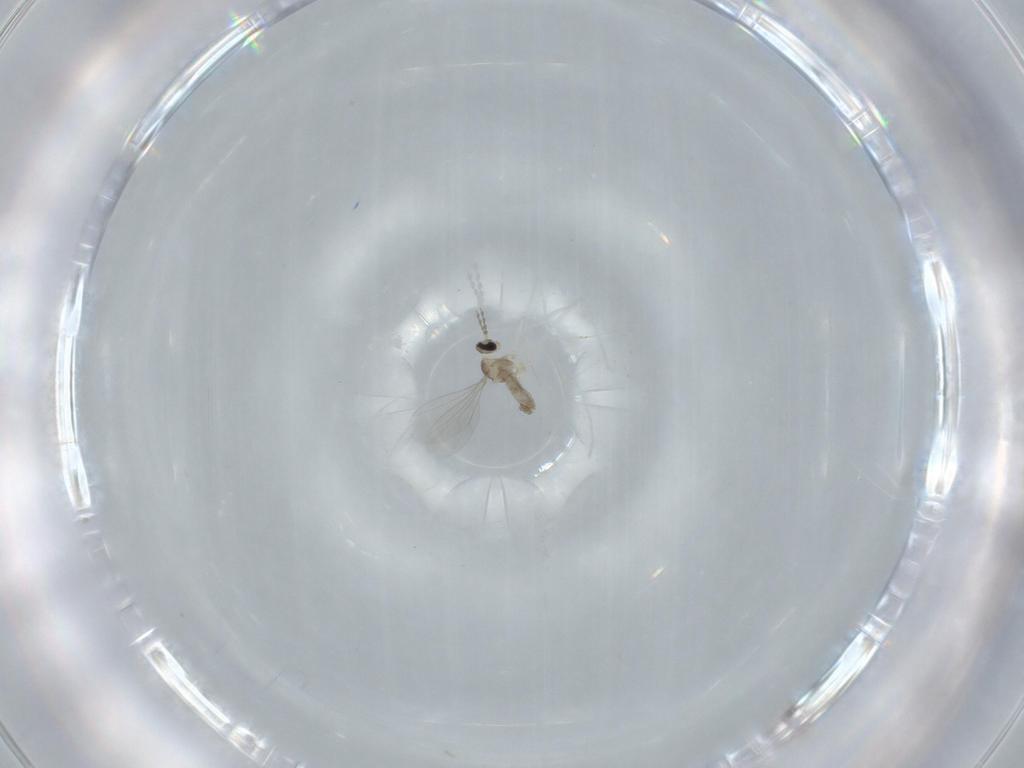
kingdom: Animalia
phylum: Arthropoda
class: Insecta
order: Diptera
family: Cecidomyiidae
